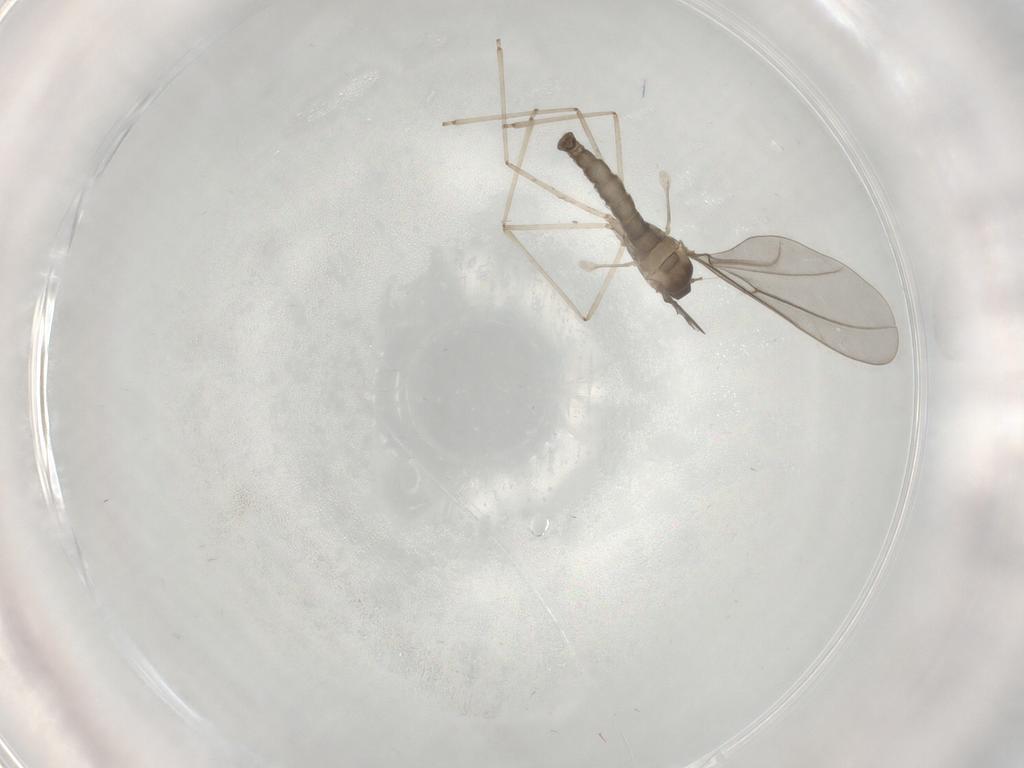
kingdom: Animalia
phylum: Arthropoda
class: Insecta
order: Diptera
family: Cecidomyiidae
